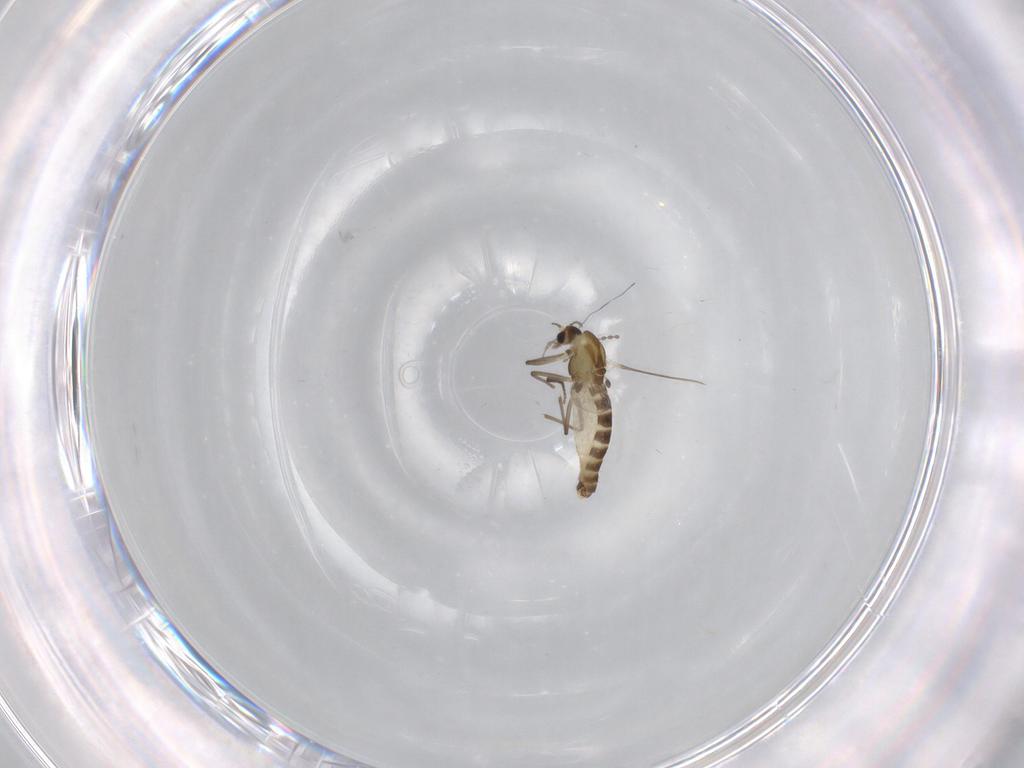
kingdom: Animalia
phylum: Arthropoda
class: Insecta
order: Diptera
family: Chironomidae
